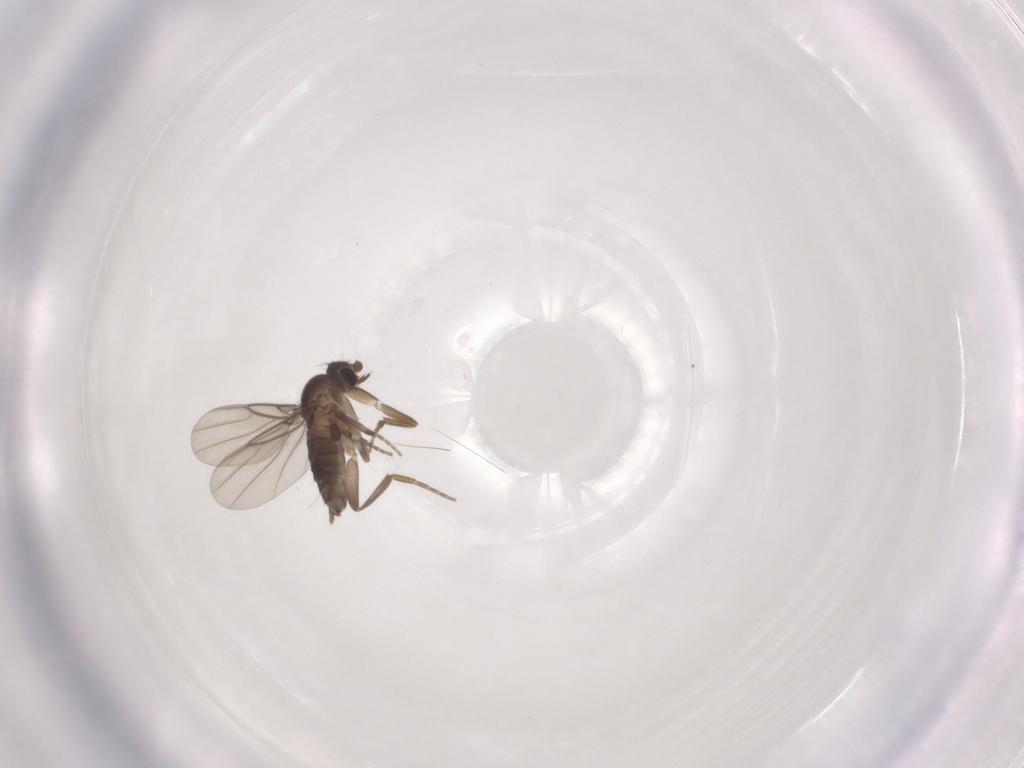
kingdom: Animalia
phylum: Arthropoda
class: Insecta
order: Diptera
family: Phoridae
